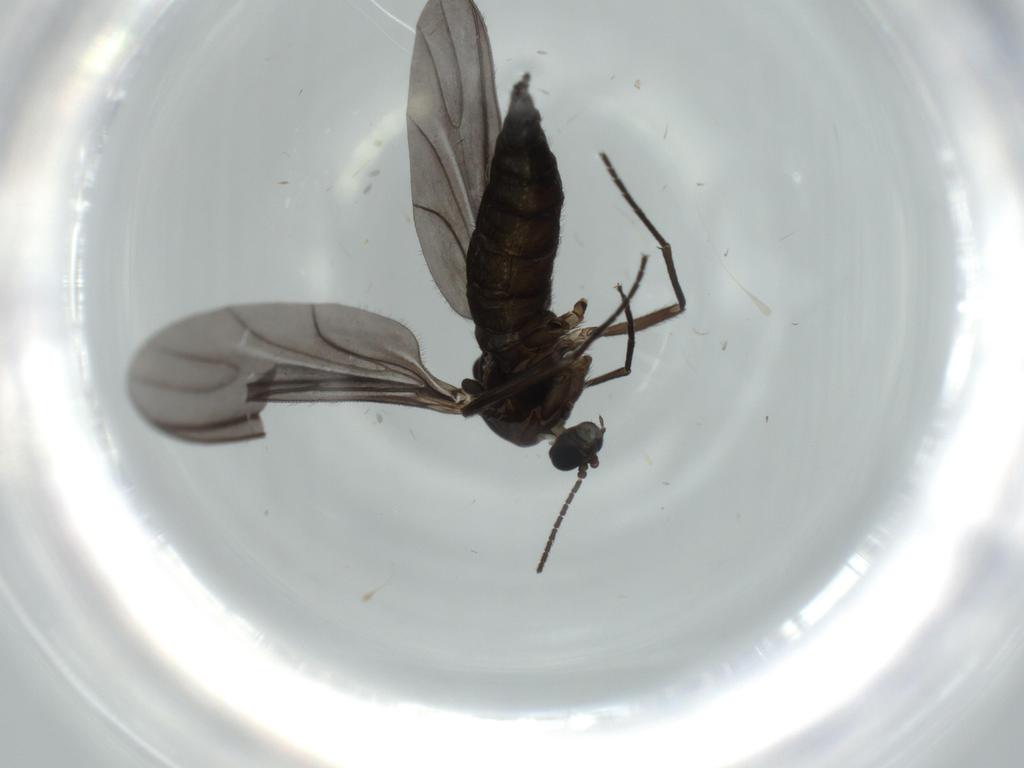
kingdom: Animalia
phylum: Arthropoda
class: Insecta
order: Diptera
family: Sciaridae
